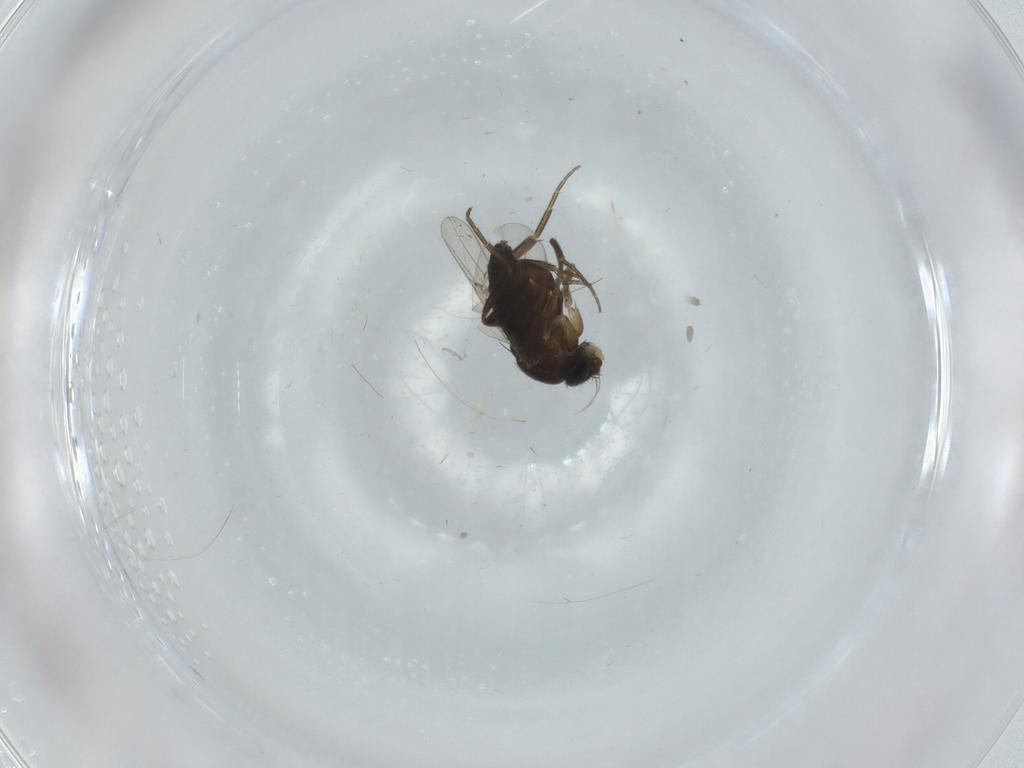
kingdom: Animalia
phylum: Arthropoda
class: Insecta
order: Diptera
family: Phoridae
